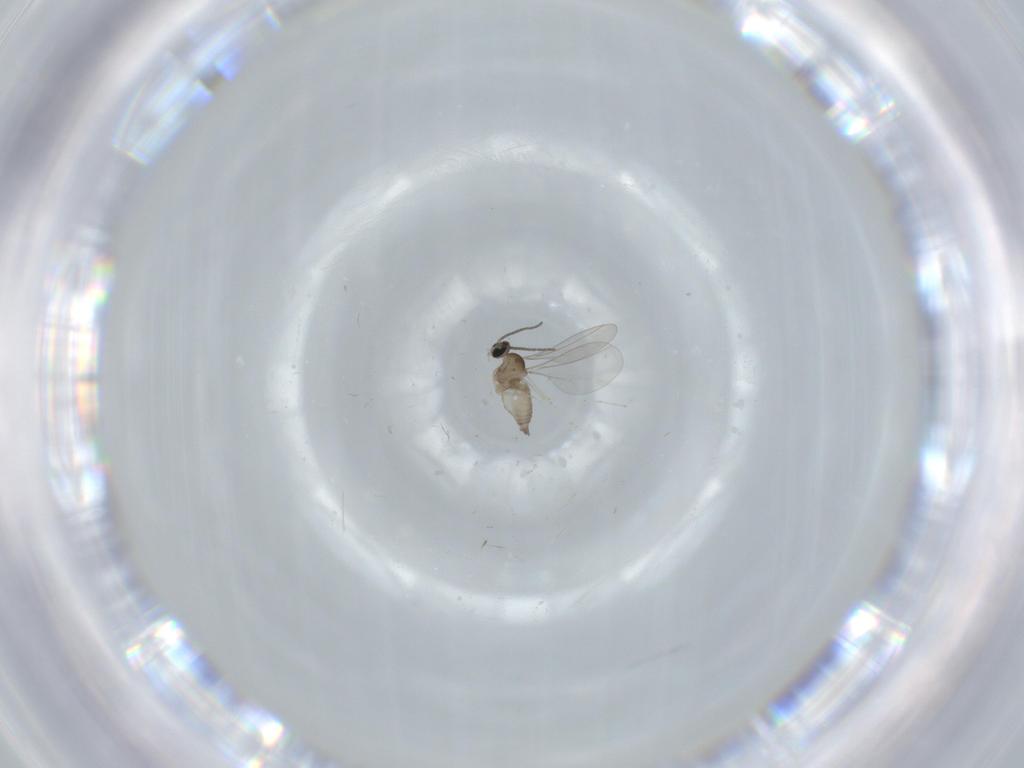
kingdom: Animalia
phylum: Arthropoda
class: Insecta
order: Diptera
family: Cecidomyiidae
